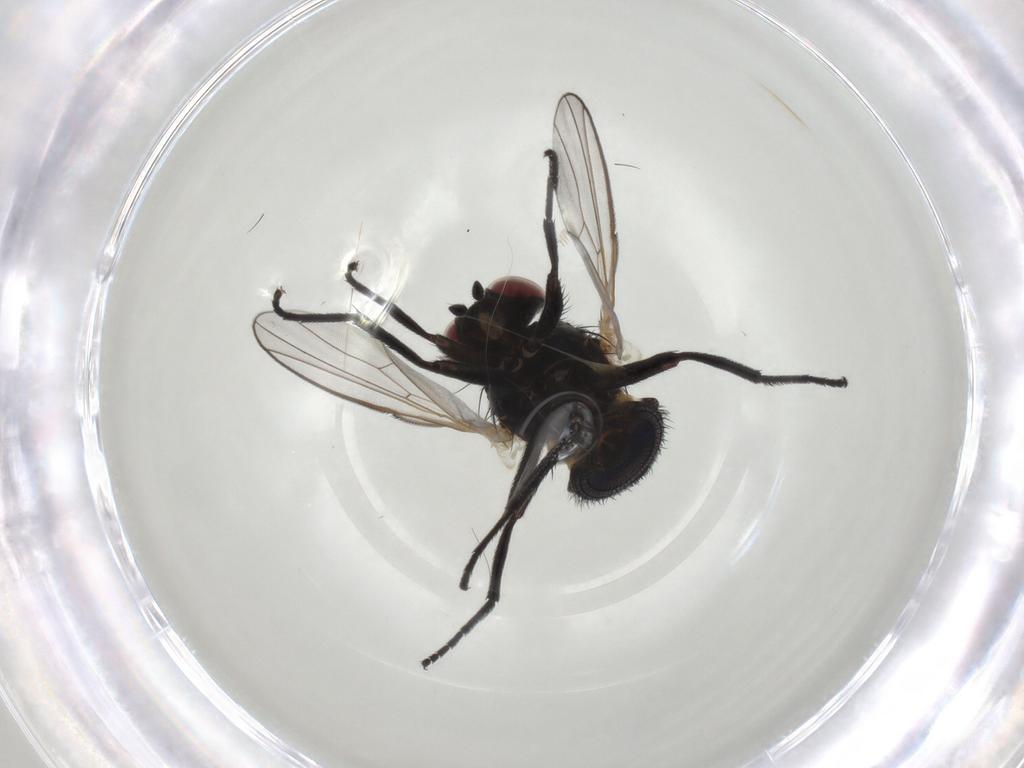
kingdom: Animalia
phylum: Arthropoda
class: Insecta
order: Diptera
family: Agromyzidae
